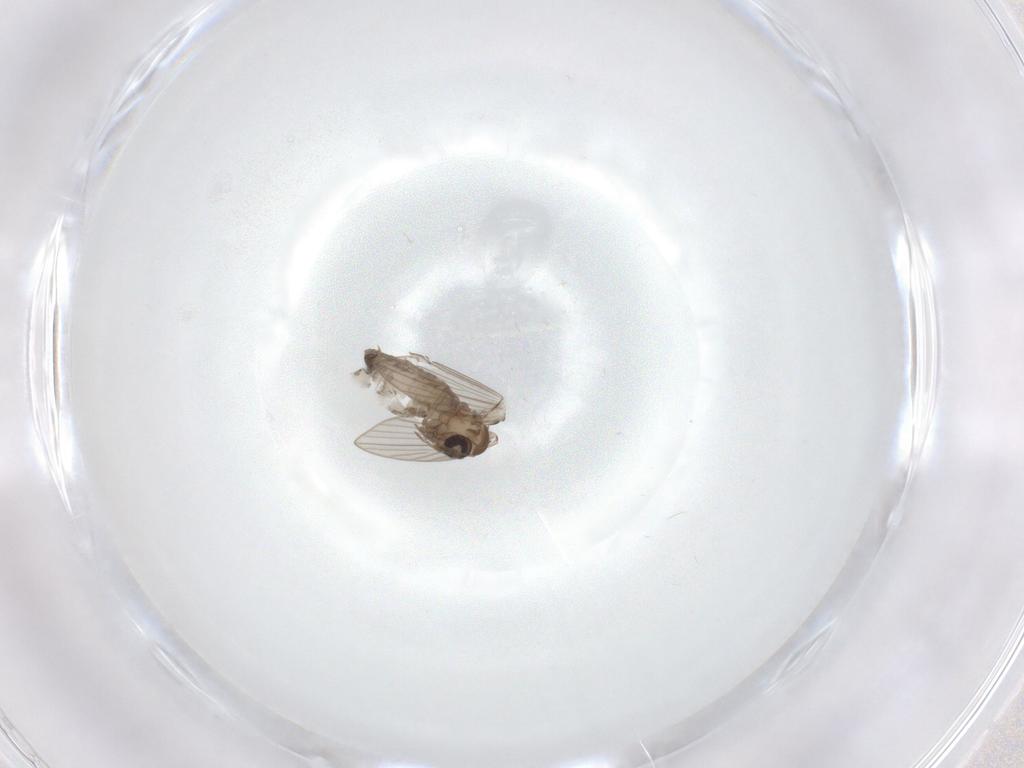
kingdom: Animalia
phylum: Arthropoda
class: Insecta
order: Diptera
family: Psychodidae
